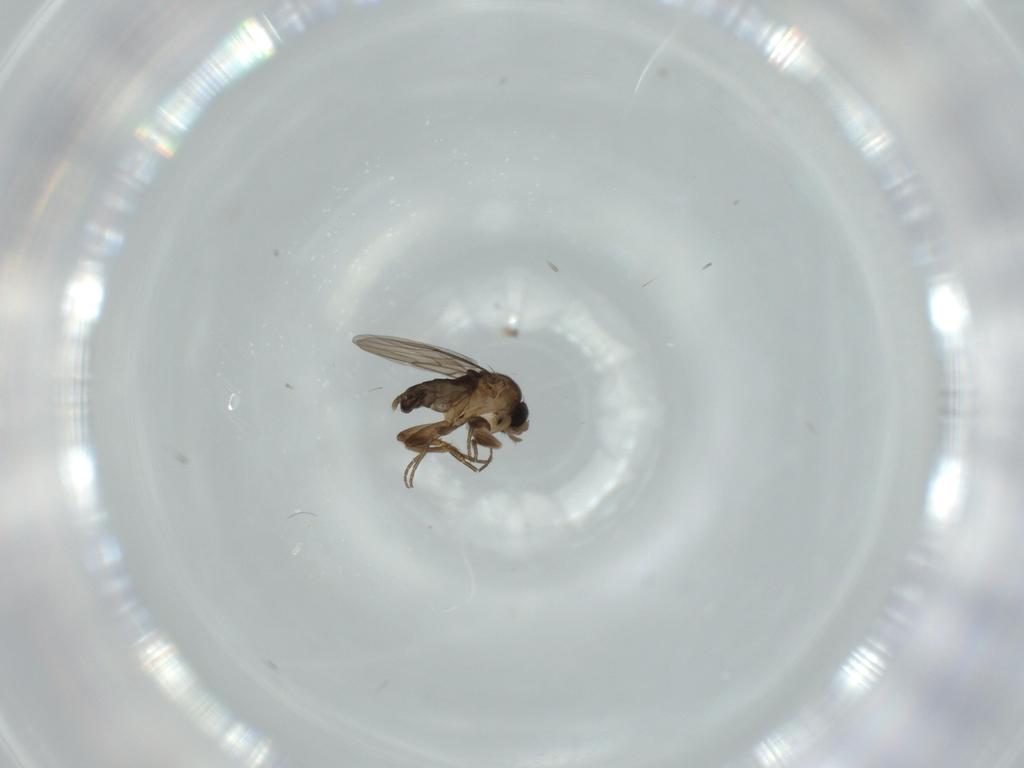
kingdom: Animalia
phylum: Arthropoda
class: Insecta
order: Diptera
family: Phoridae
